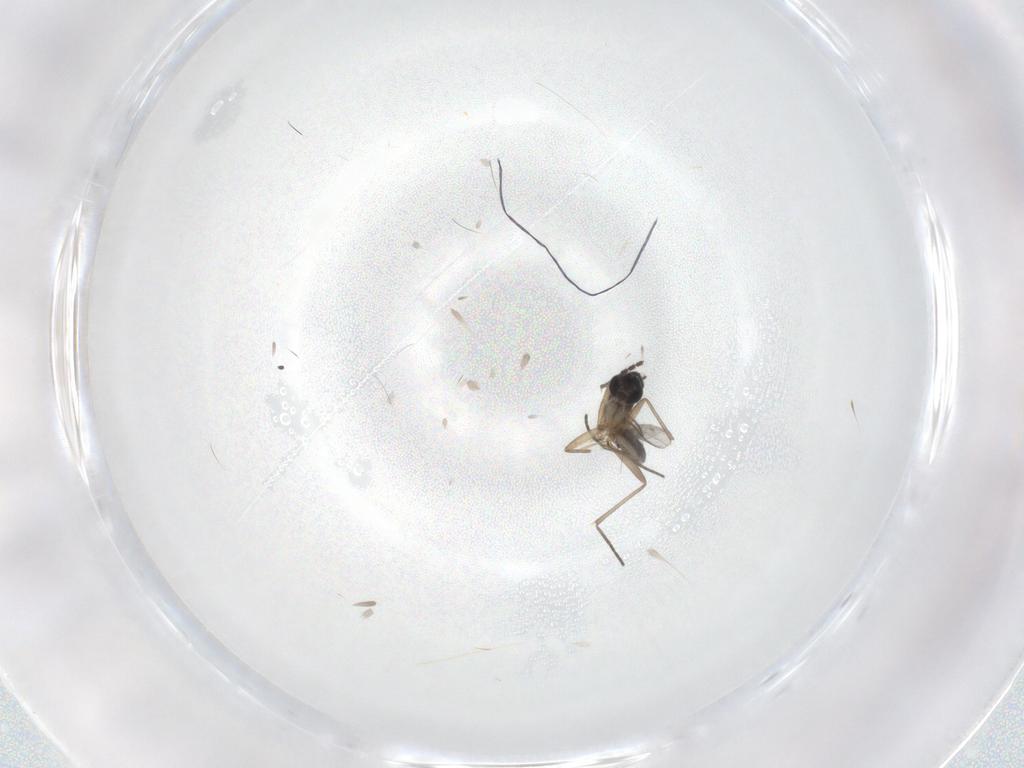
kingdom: Animalia
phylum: Arthropoda
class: Insecta
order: Diptera
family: Sciaridae
